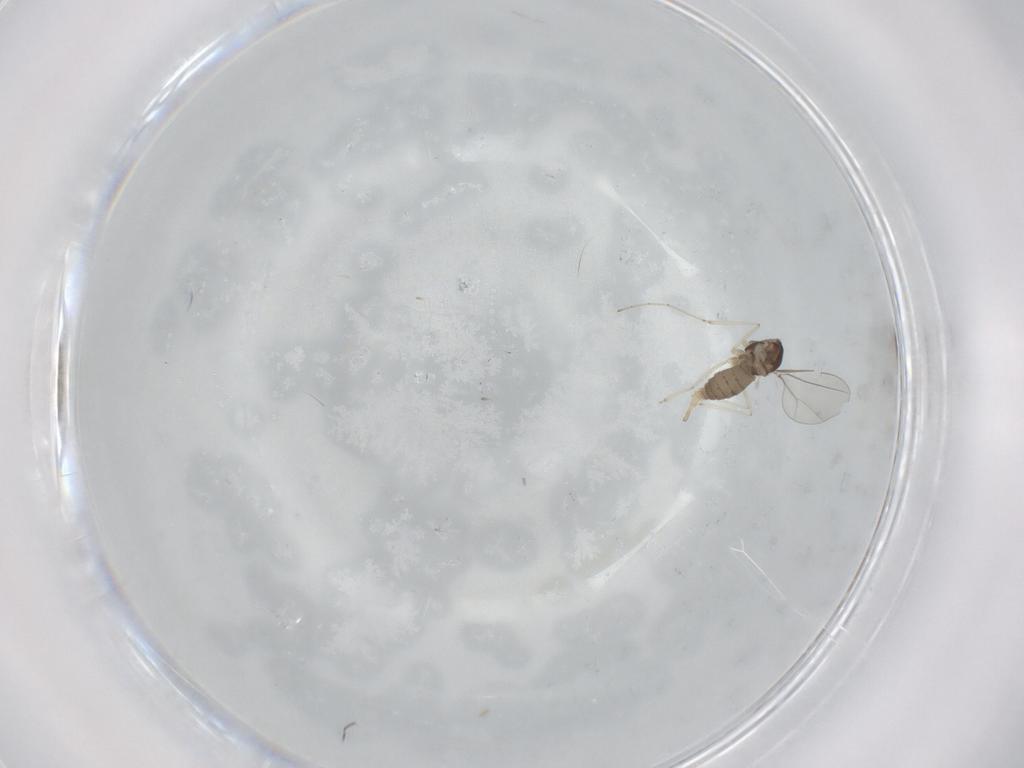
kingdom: Animalia
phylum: Arthropoda
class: Insecta
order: Diptera
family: Cecidomyiidae
